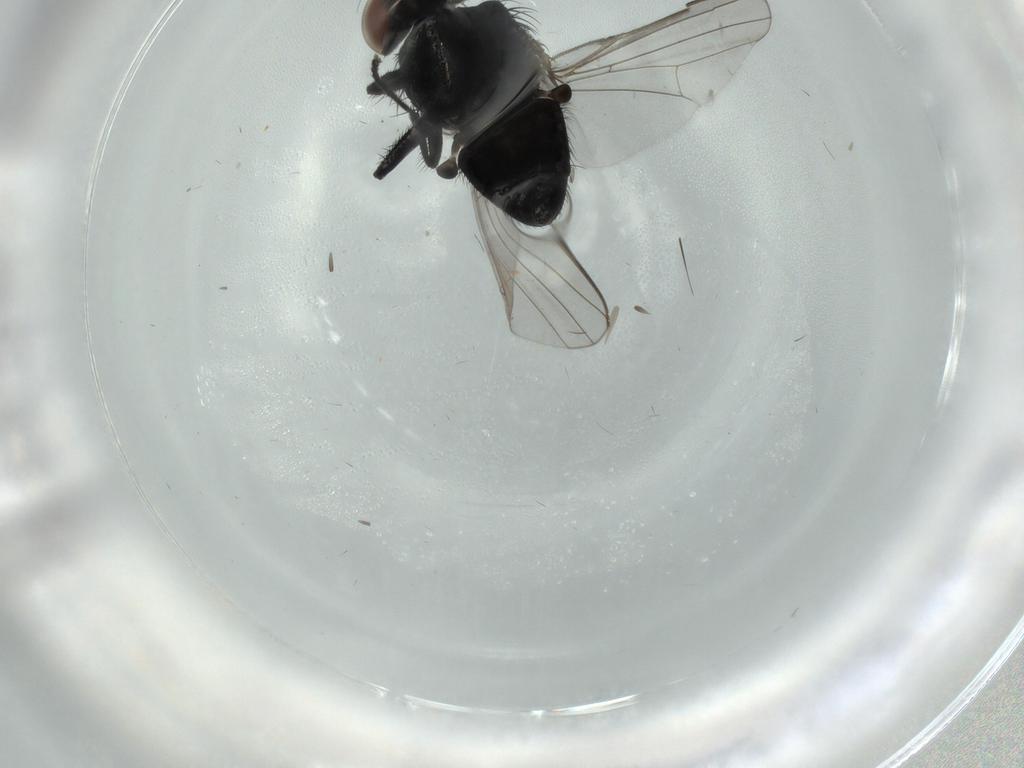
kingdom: Animalia
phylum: Arthropoda
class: Insecta
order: Diptera
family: Milichiidae
